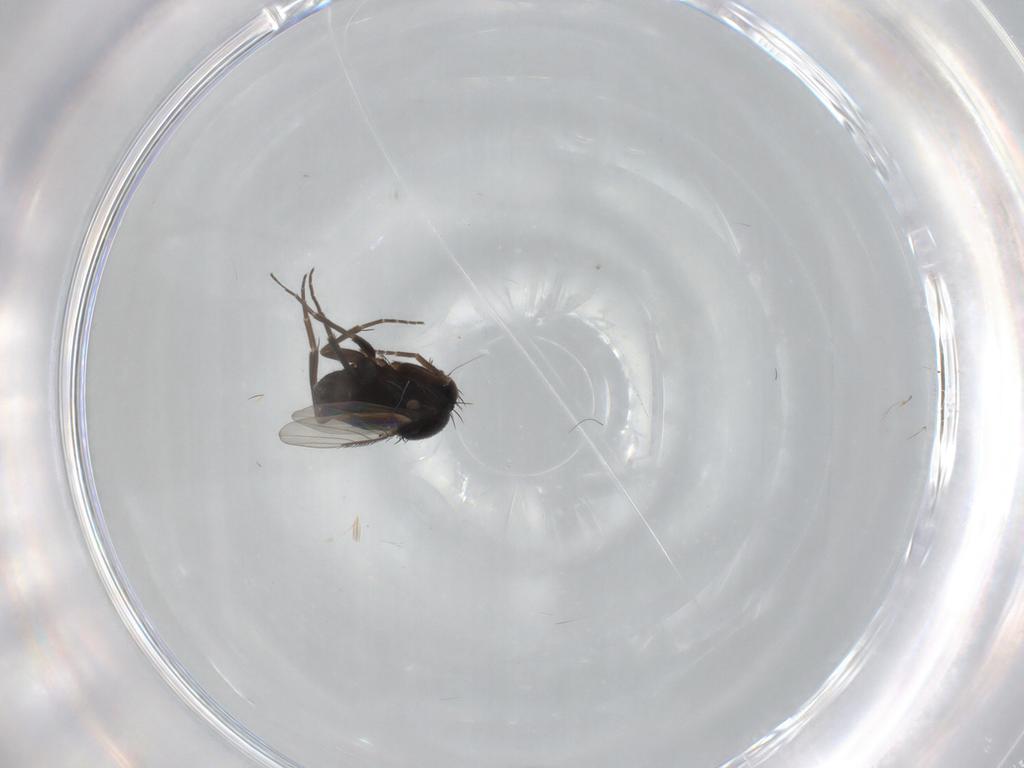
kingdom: Animalia
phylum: Arthropoda
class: Insecta
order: Diptera
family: Phoridae
